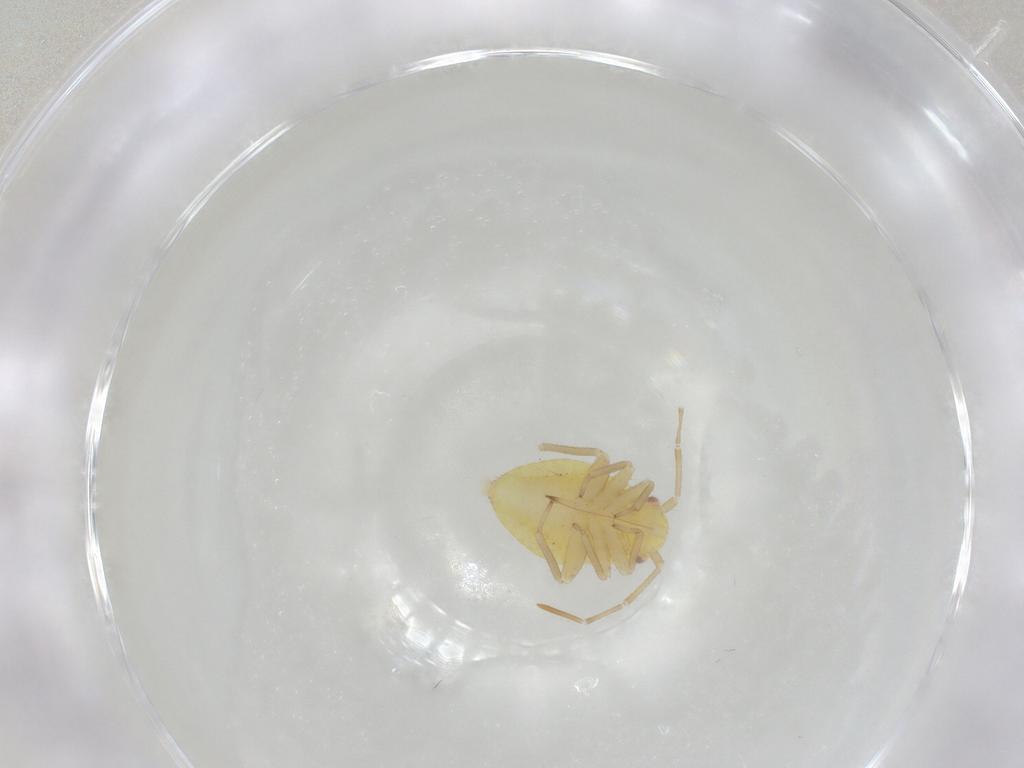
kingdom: Animalia
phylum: Arthropoda
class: Insecta
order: Hemiptera
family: Miridae
